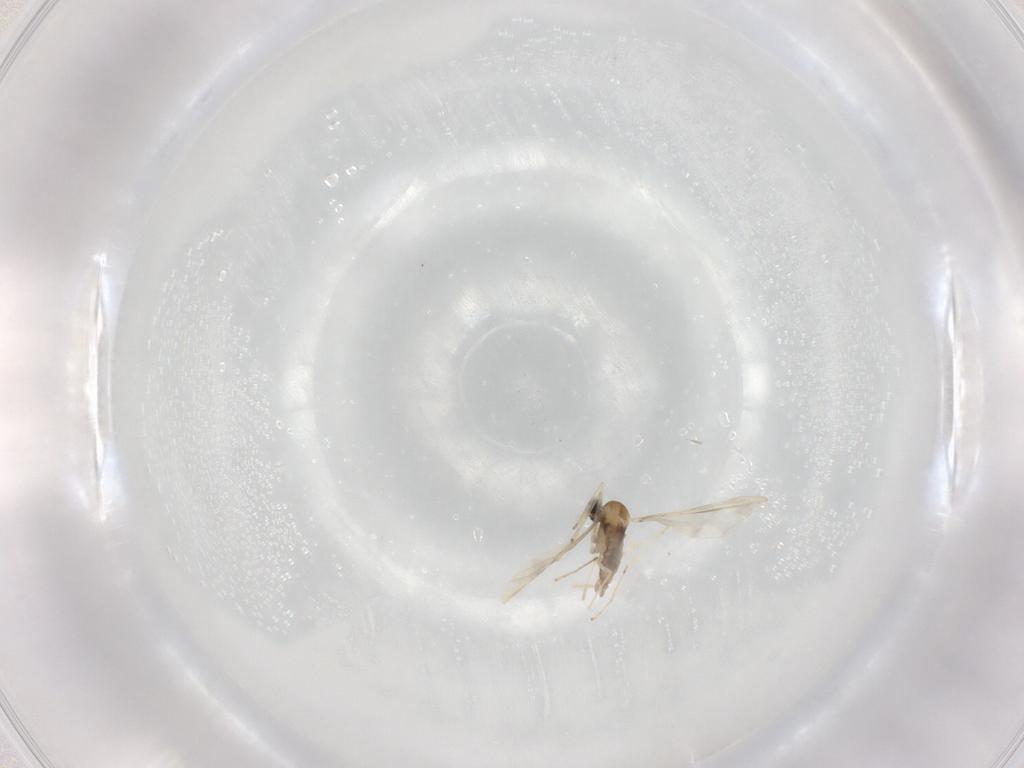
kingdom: Animalia
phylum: Arthropoda
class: Insecta
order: Diptera
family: Cecidomyiidae
